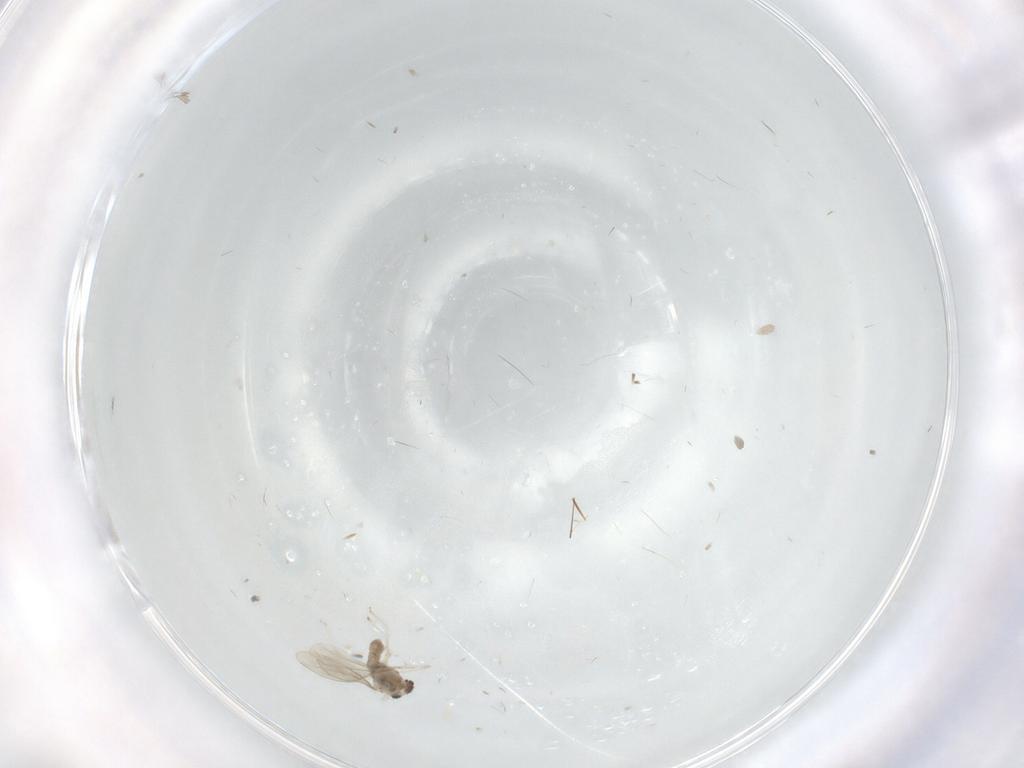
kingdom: Animalia
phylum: Arthropoda
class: Insecta
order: Diptera
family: Cecidomyiidae
